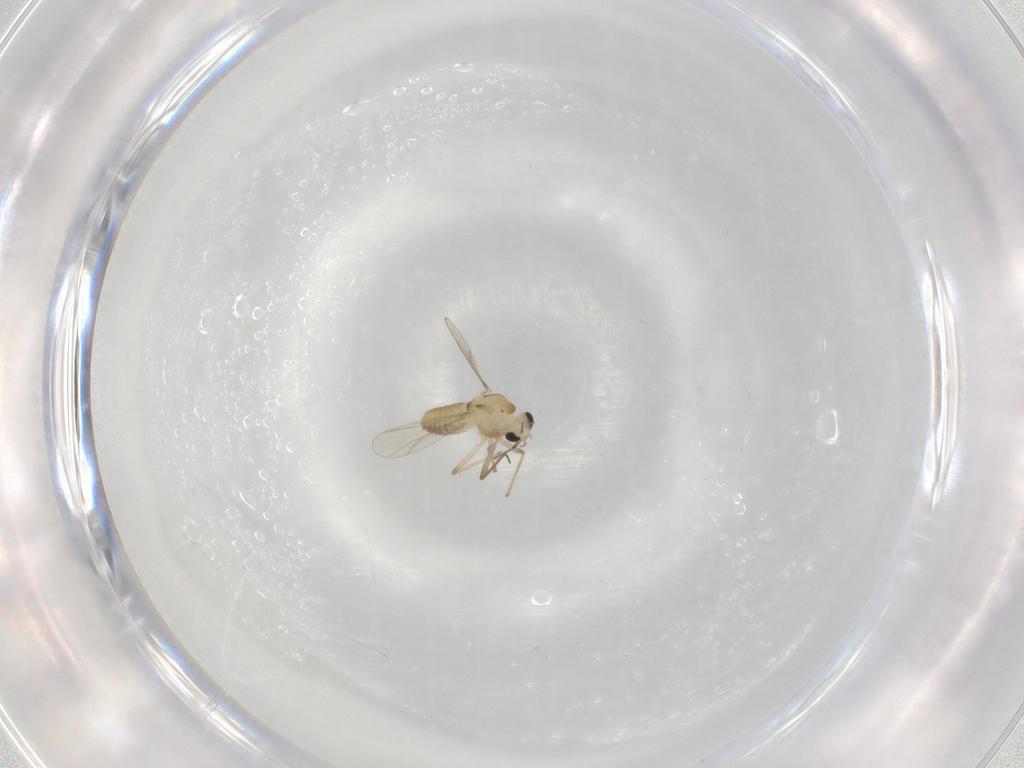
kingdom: Animalia
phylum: Arthropoda
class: Insecta
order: Diptera
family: Chironomidae
